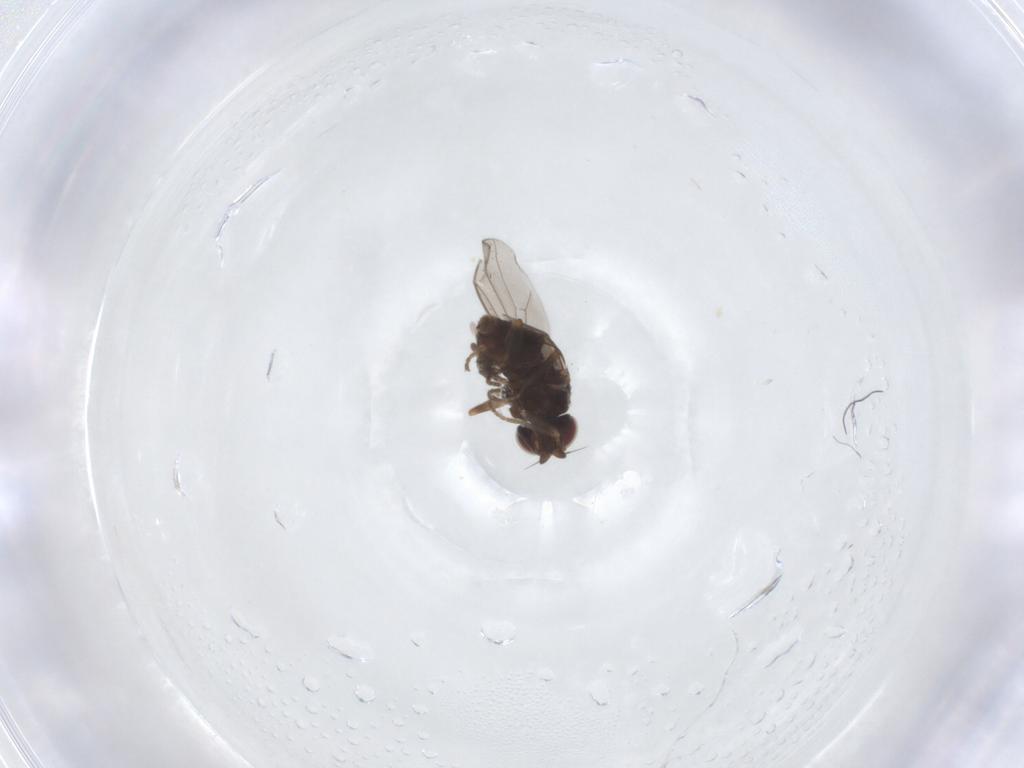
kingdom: Animalia
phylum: Arthropoda
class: Insecta
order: Diptera
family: Chloropidae
